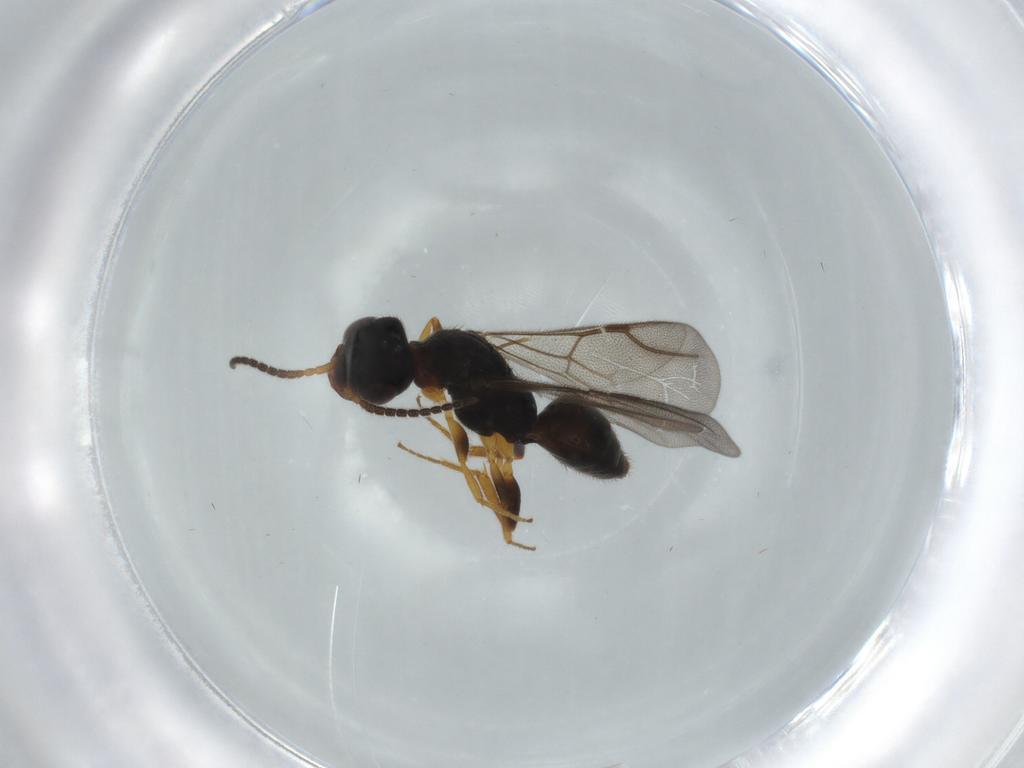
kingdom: Animalia
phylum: Arthropoda
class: Insecta
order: Hymenoptera
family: Bethylidae
